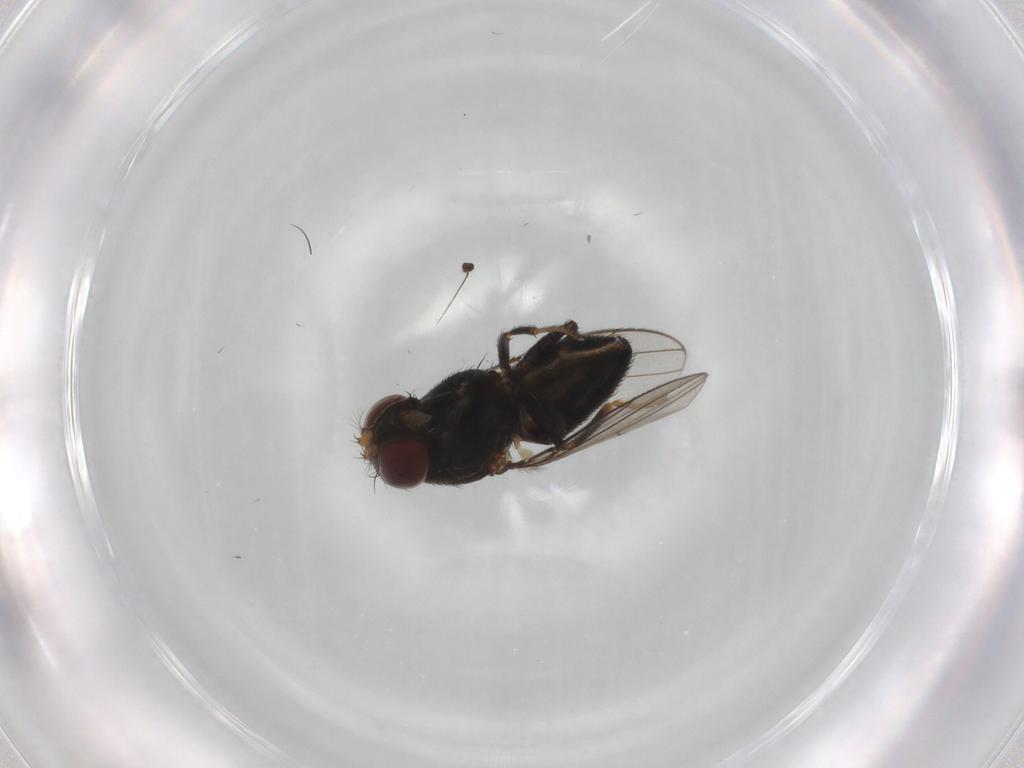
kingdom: Animalia
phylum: Arthropoda
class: Insecta
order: Diptera
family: Dolichopodidae
